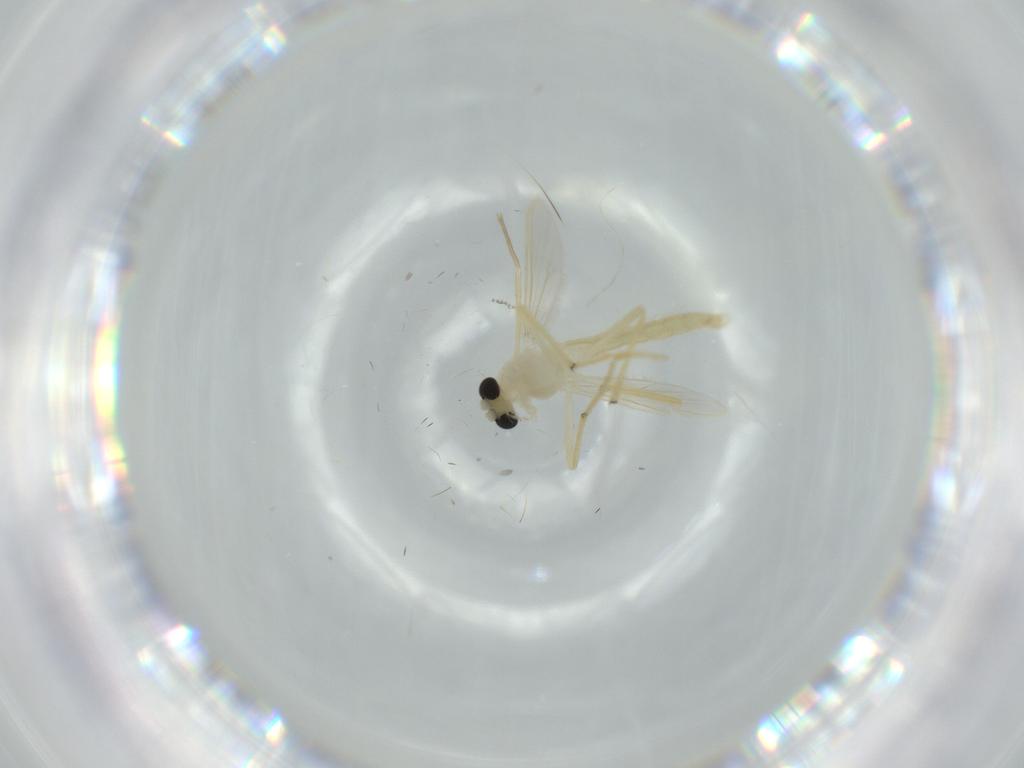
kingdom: Animalia
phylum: Arthropoda
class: Insecta
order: Diptera
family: Chironomidae
